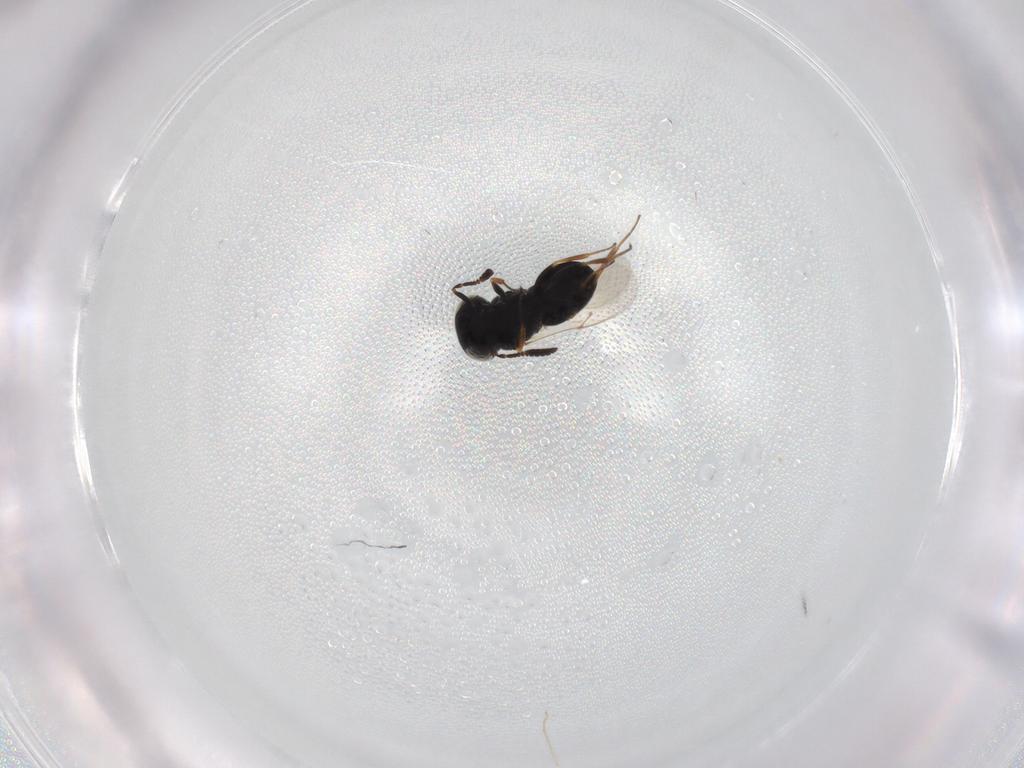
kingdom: Animalia
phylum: Arthropoda
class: Insecta
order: Hymenoptera
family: Scelionidae
